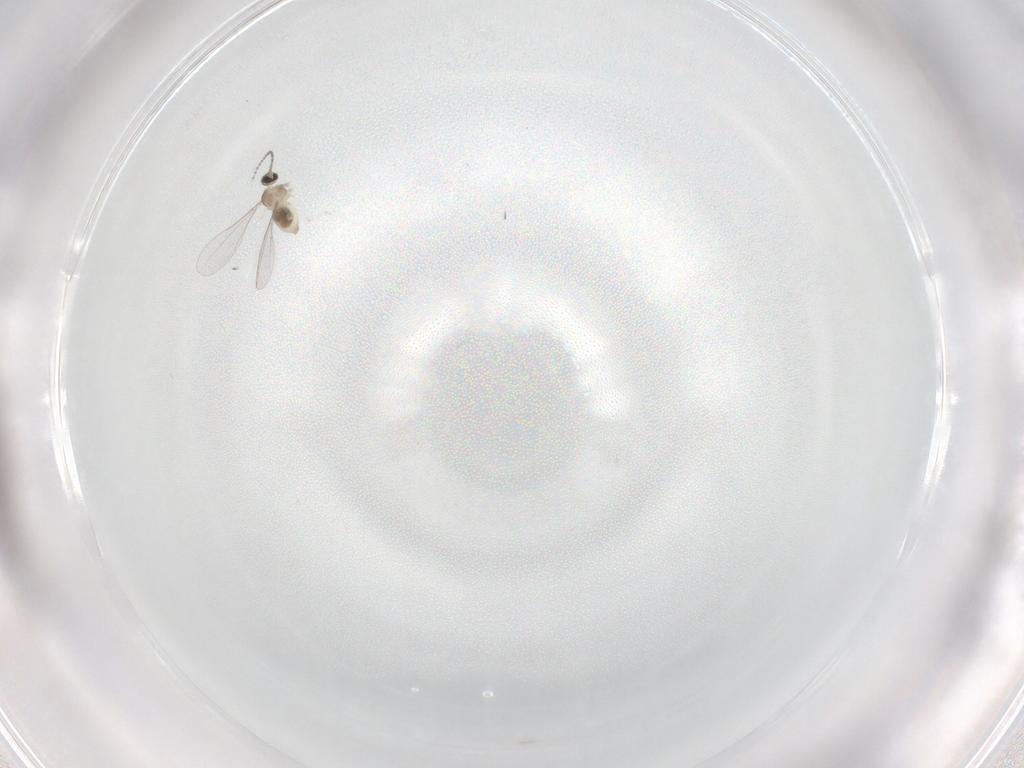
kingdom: Animalia
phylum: Arthropoda
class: Insecta
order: Diptera
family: Cecidomyiidae
